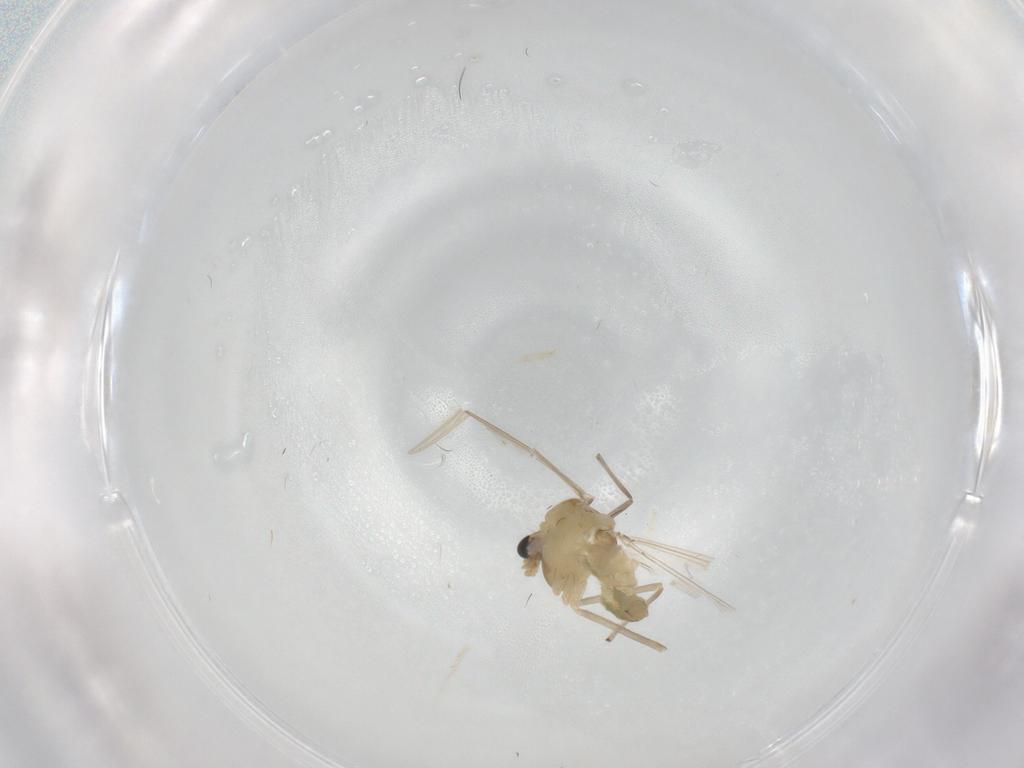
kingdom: Animalia
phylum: Arthropoda
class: Insecta
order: Diptera
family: Chironomidae
